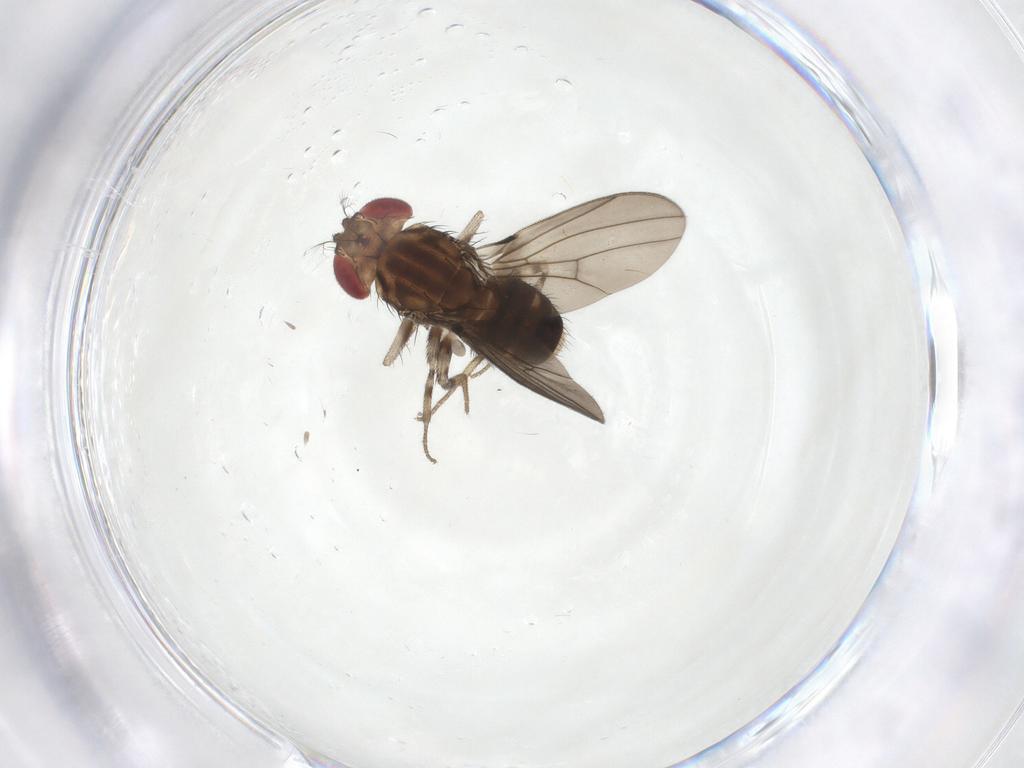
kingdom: Animalia
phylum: Arthropoda
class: Insecta
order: Diptera
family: Drosophilidae
